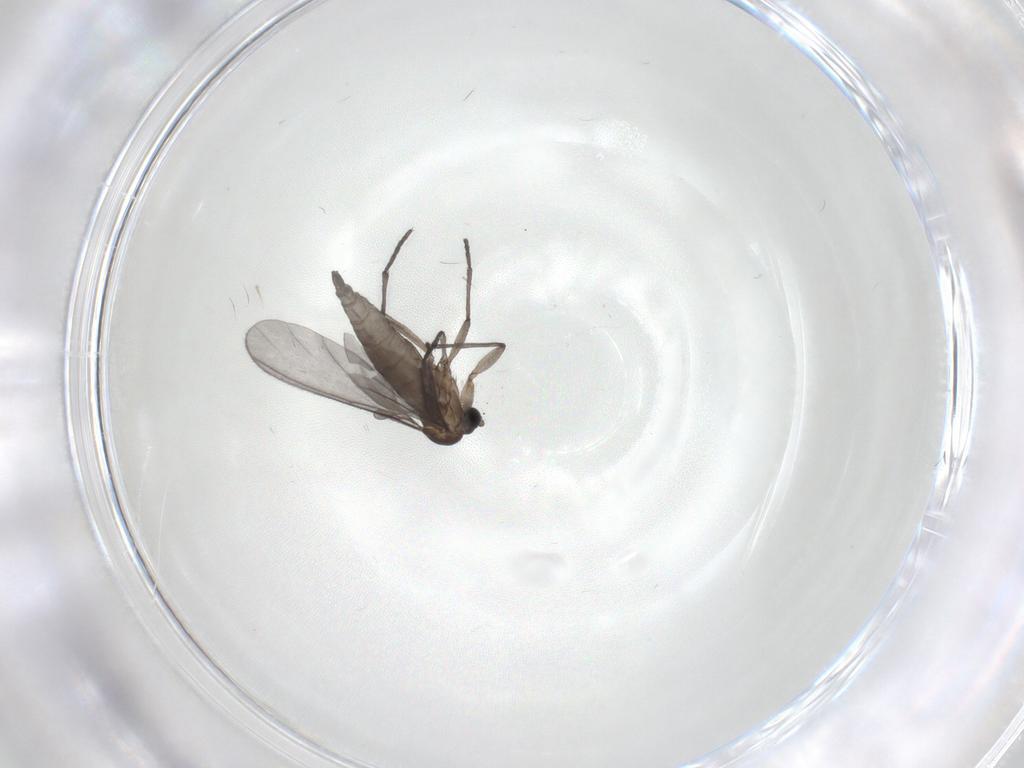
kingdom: Animalia
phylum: Arthropoda
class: Insecta
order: Diptera
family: Sciaridae
